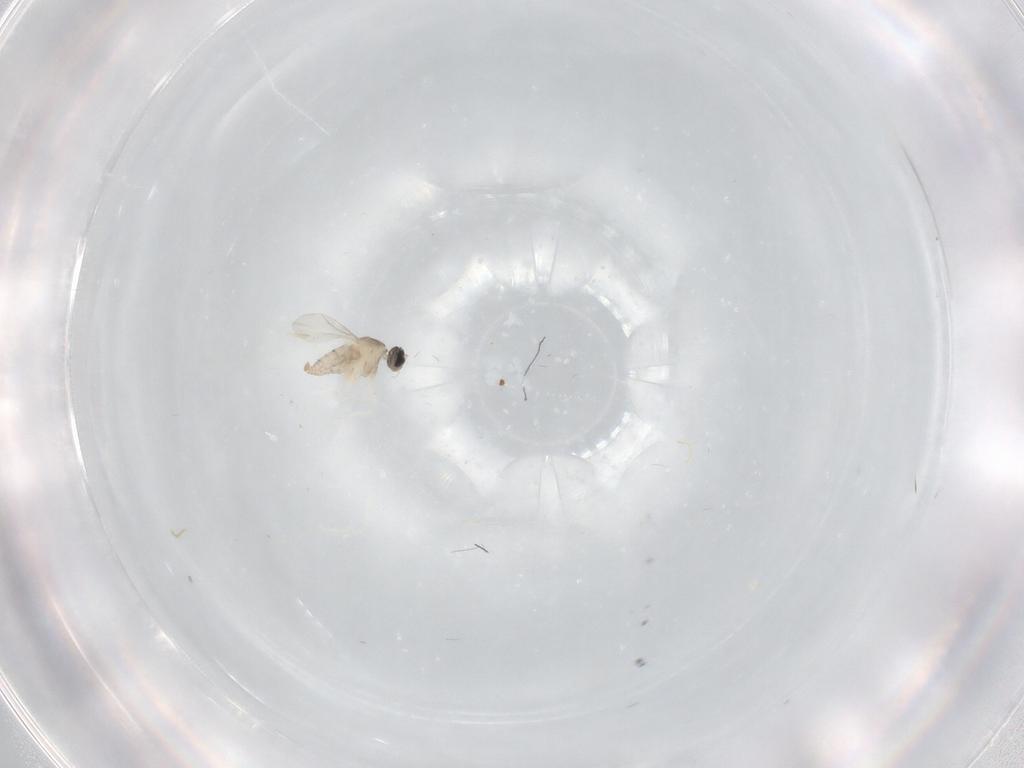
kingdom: Animalia
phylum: Arthropoda
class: Insecta
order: Diptera
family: Cecidomyiidae
